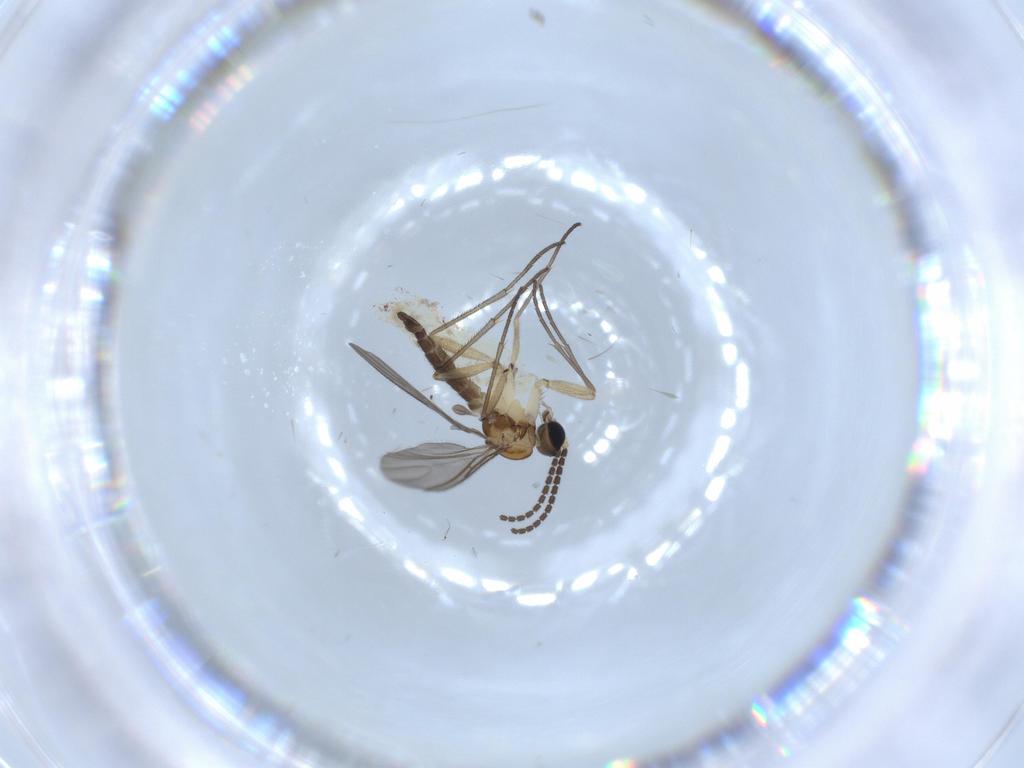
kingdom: Animalia
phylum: Arthropoda
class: Insecta
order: Diptera
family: Sciaridae
